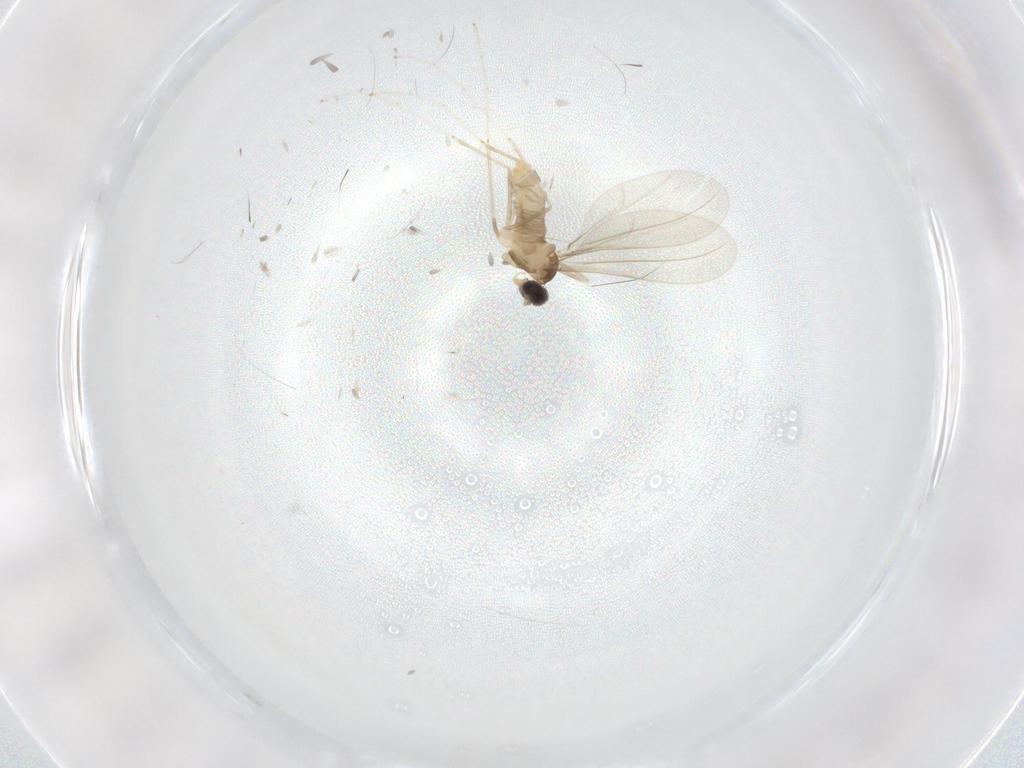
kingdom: Animalia
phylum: Arthropoda
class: Insecta
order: Diptera
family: Cecidomyiidae
